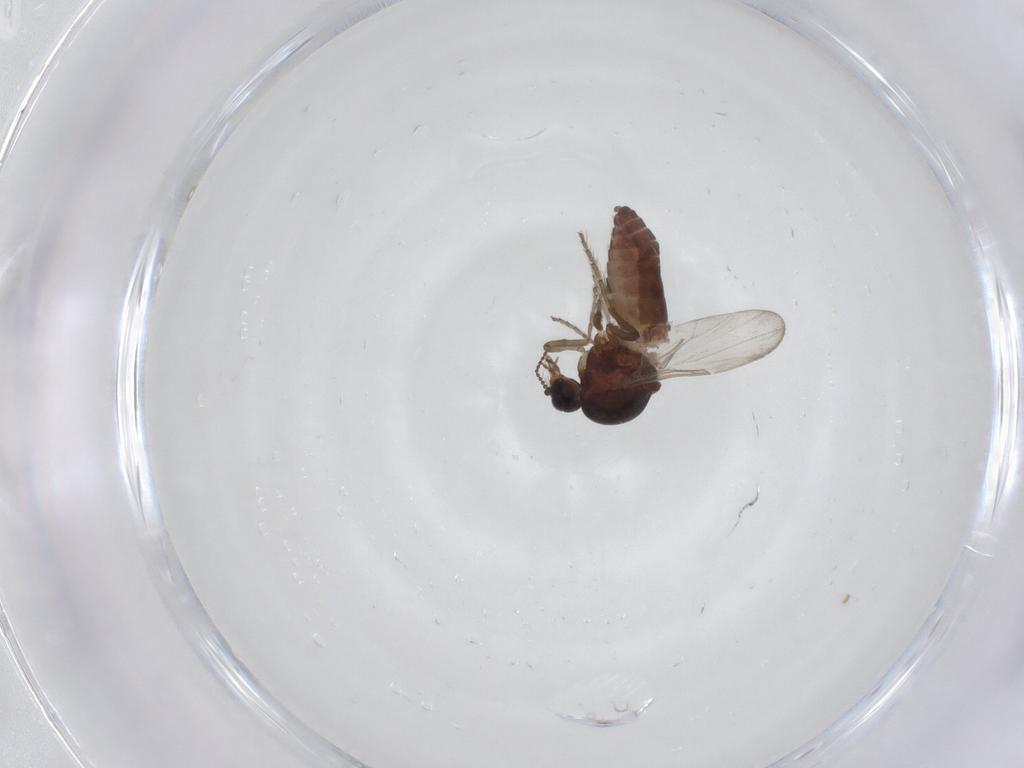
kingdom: Animalia
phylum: Arthropoda
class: Insecta
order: Diptera
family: Ceratopogonidae
